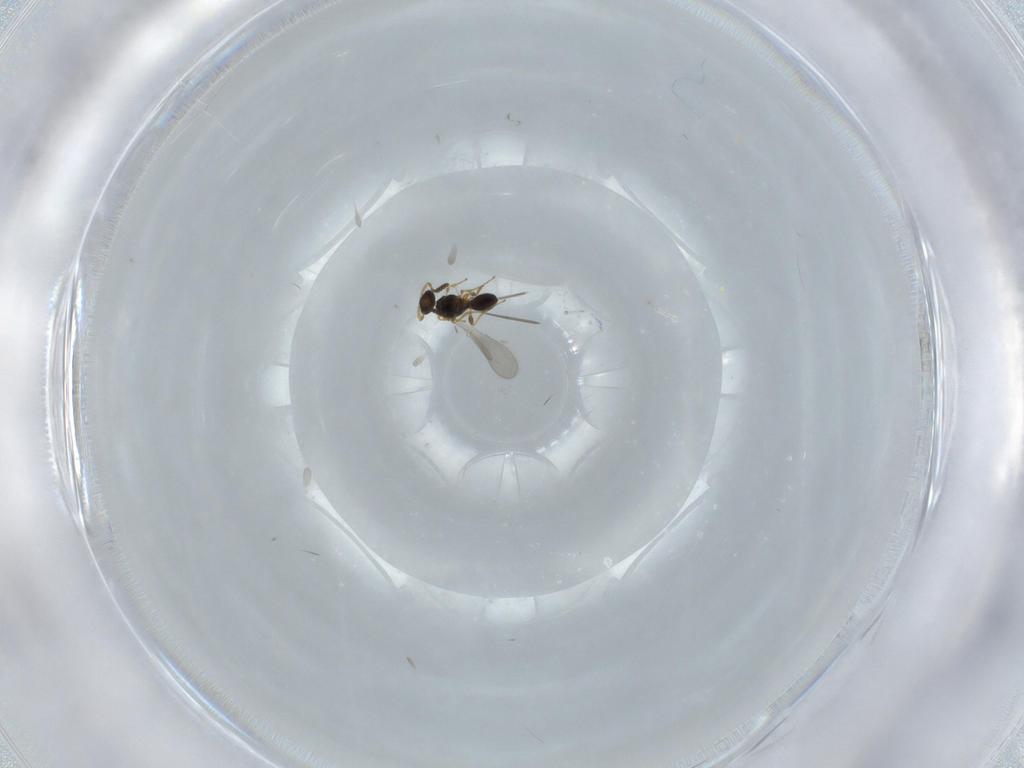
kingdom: Animalia
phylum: Arthropoda
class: Insecta
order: Hymenoptera
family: Platygastridae
